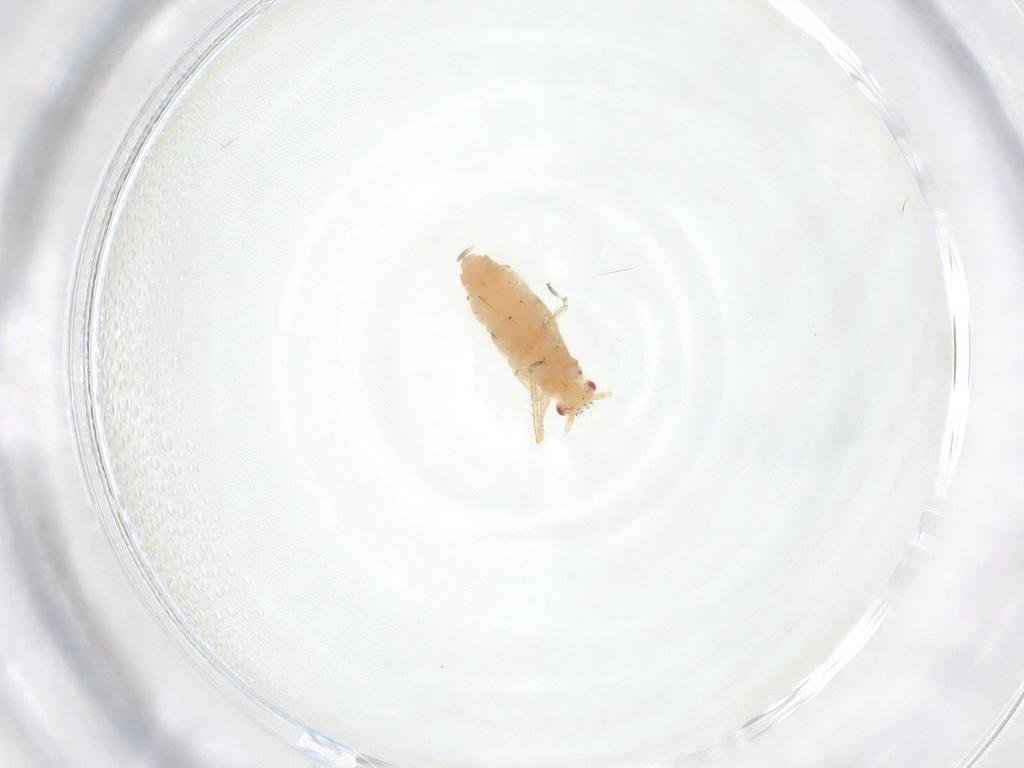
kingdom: Animalia
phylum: Arthropoda
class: Insecta
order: Hemiptera
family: Aphididae
